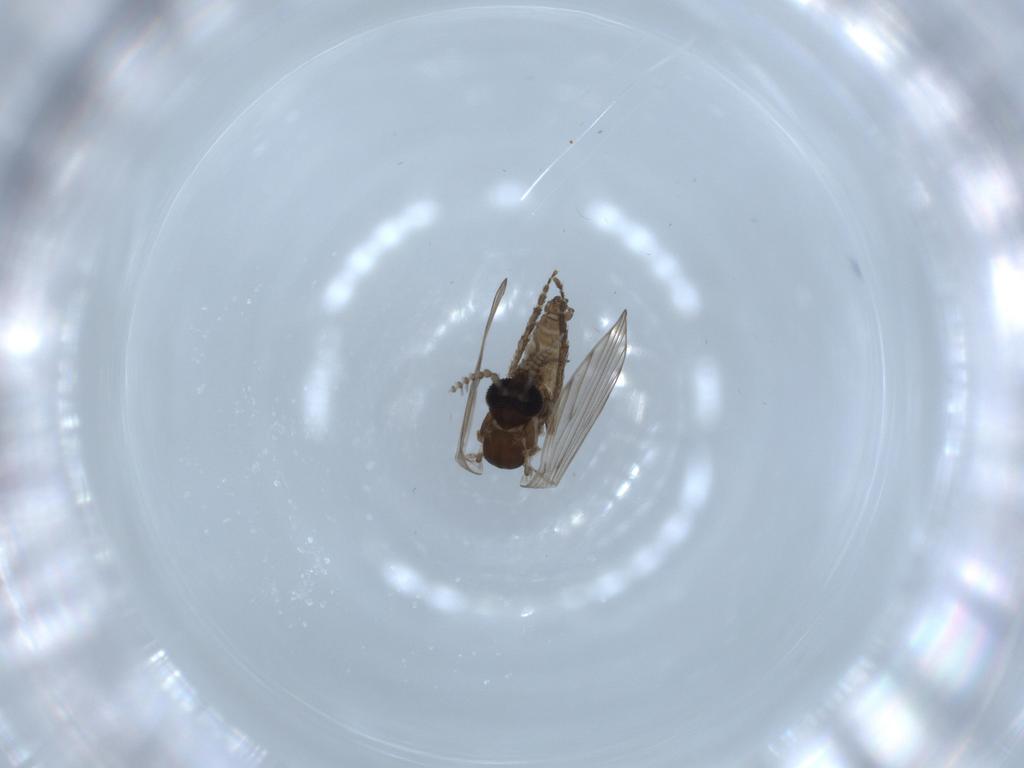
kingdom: Animalia
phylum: Arthropoda
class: Insecta
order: Diptera
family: Psychodidae
